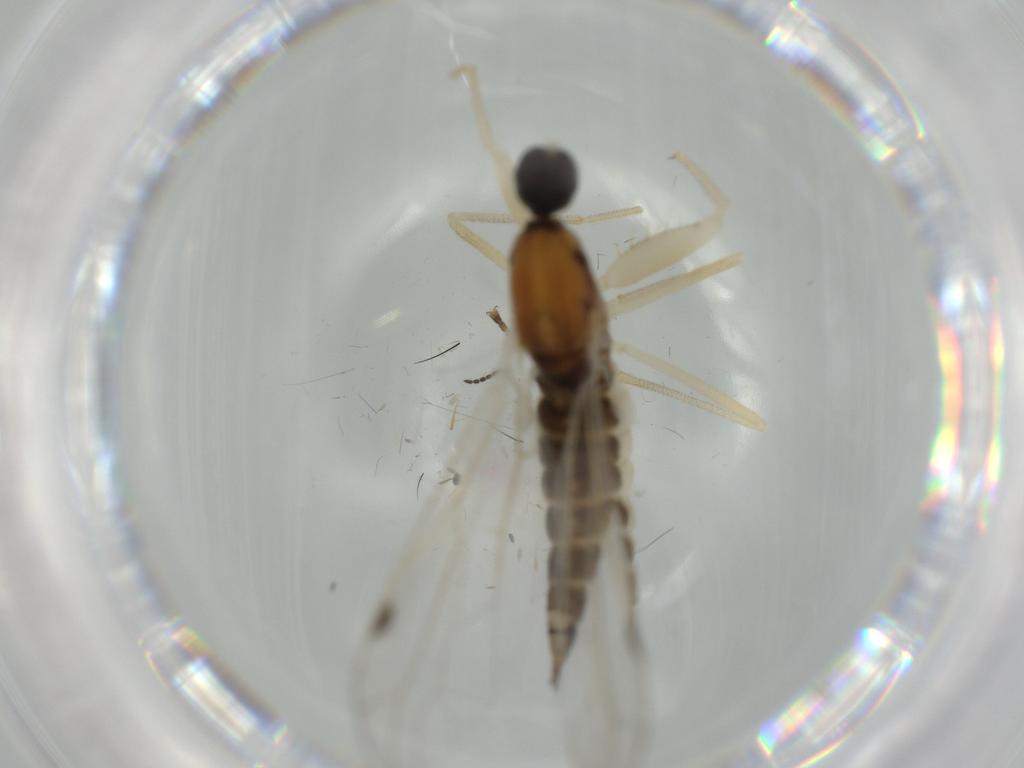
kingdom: Animalia
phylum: Arthropoda
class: Insecta
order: Diptera
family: Empididae
